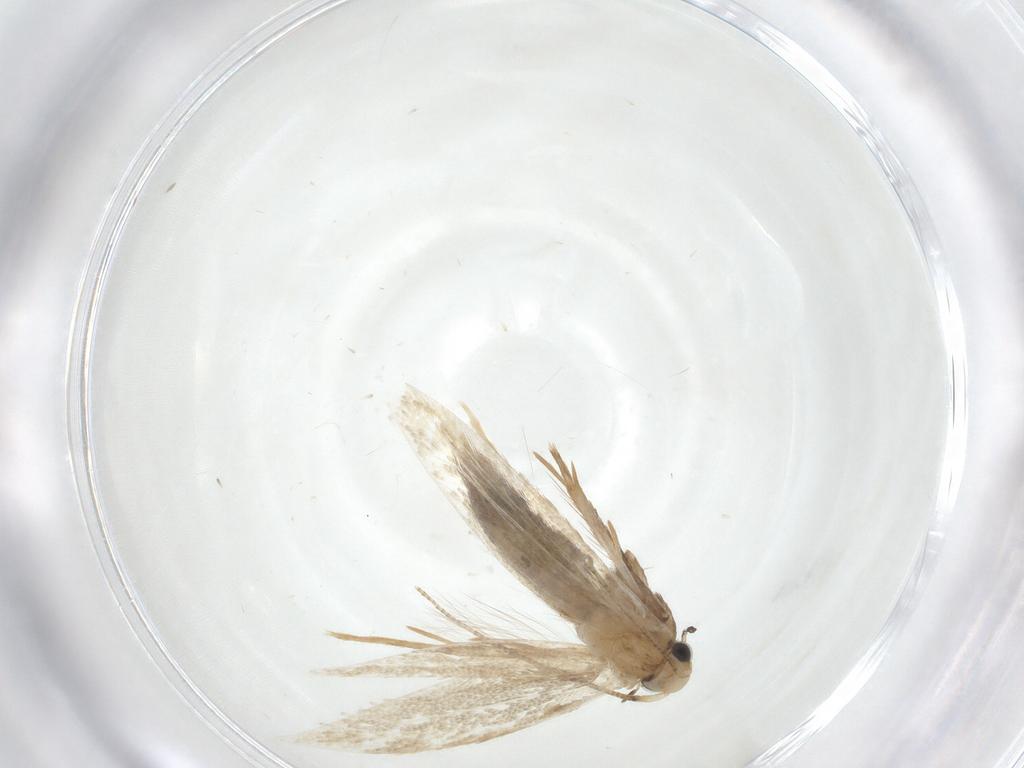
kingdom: Animalia
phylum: Arthropoda
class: Insecta
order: Lepidoptera
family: Tineidae
